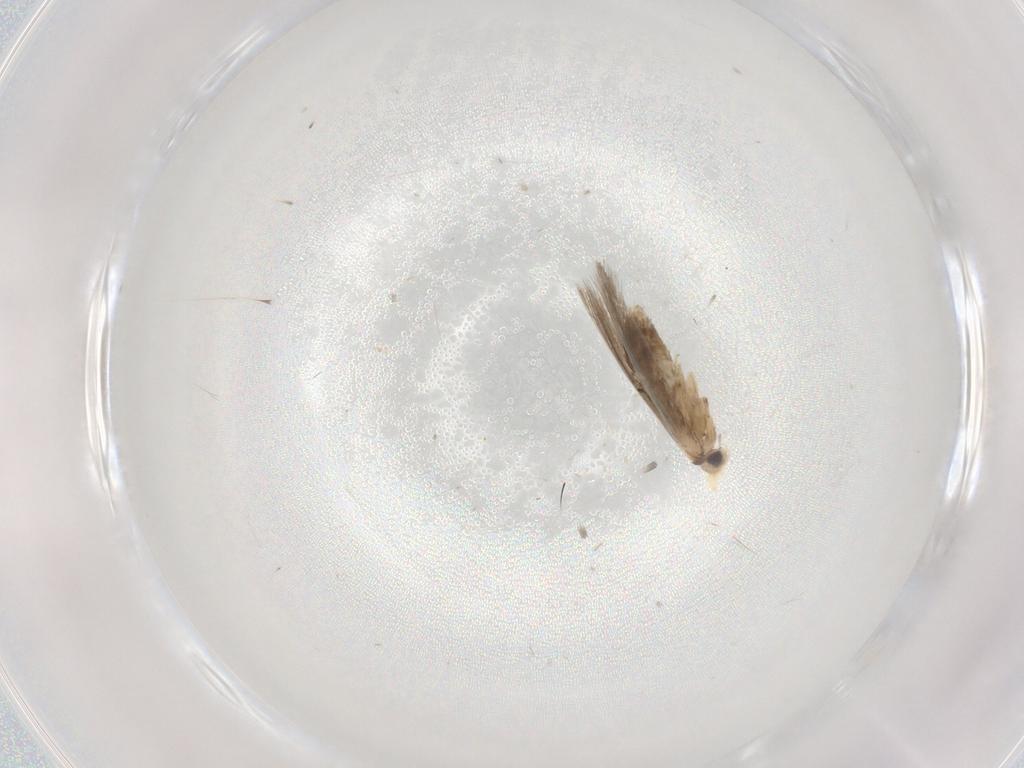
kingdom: Animalia
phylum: Arthropoda
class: Insecta
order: Lepidoptera
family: Nepticulidae
